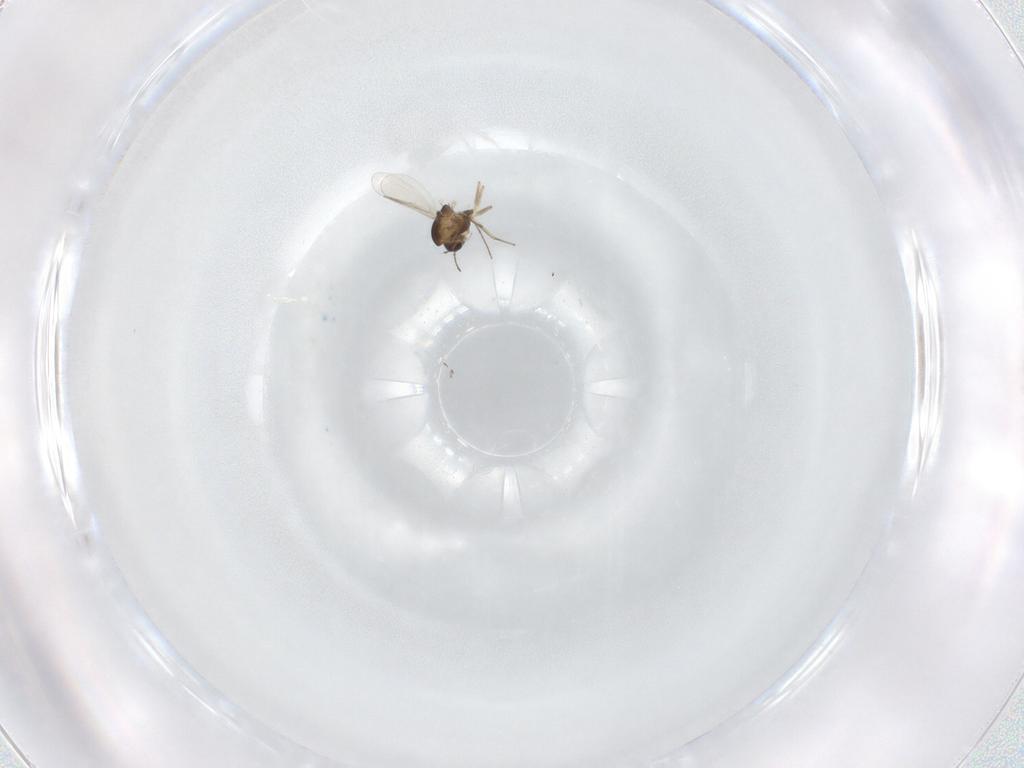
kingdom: Animalia
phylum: Arthropoda
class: Insecta
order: Diptera
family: Chironomidae
